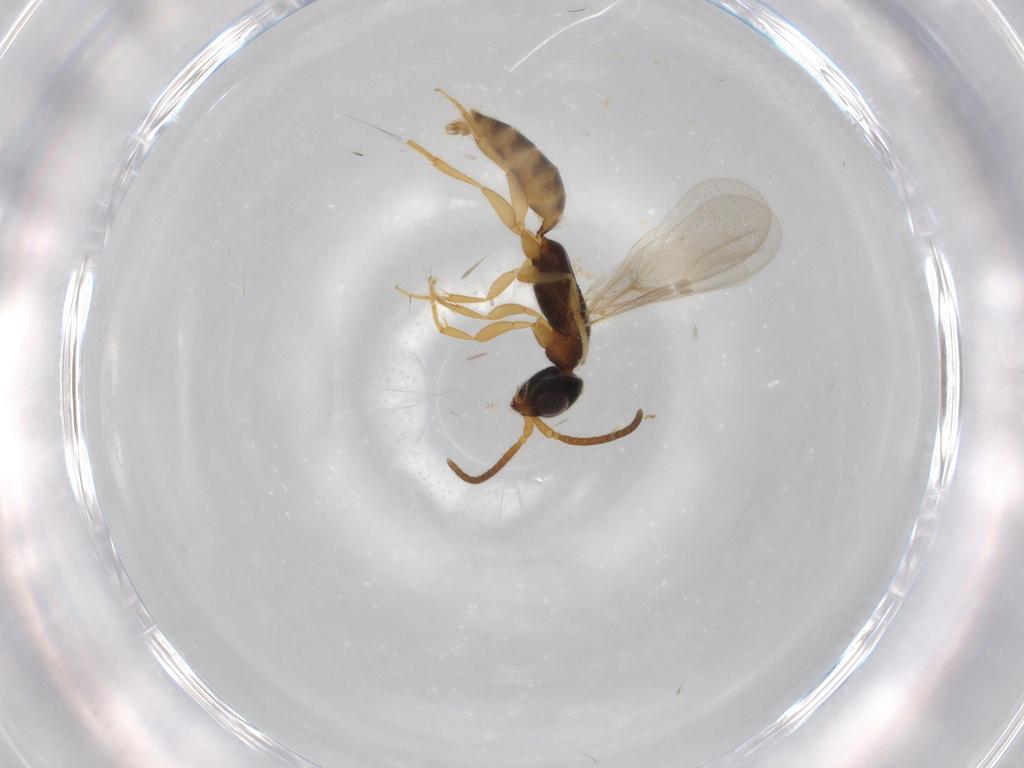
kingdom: Animalia
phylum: Arthropoda
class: Insecta
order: Hymenoptera
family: Bethylidae
